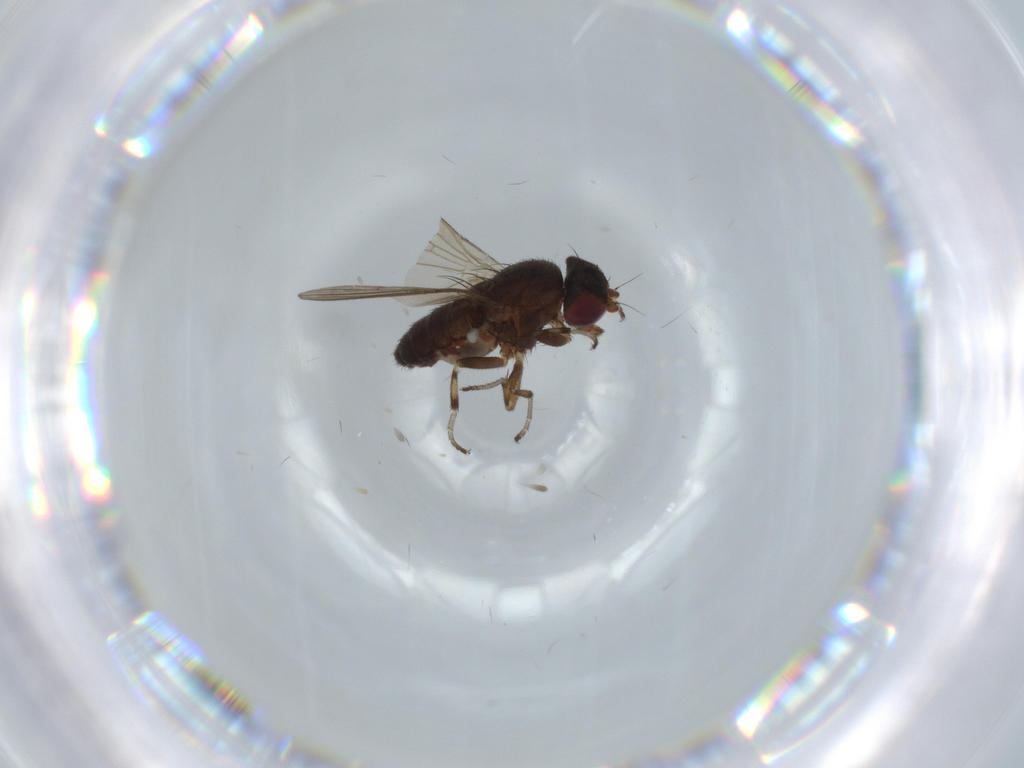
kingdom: Animalia
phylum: Arthropoda
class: Insecta
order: Diptera
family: Heleomyzidae
